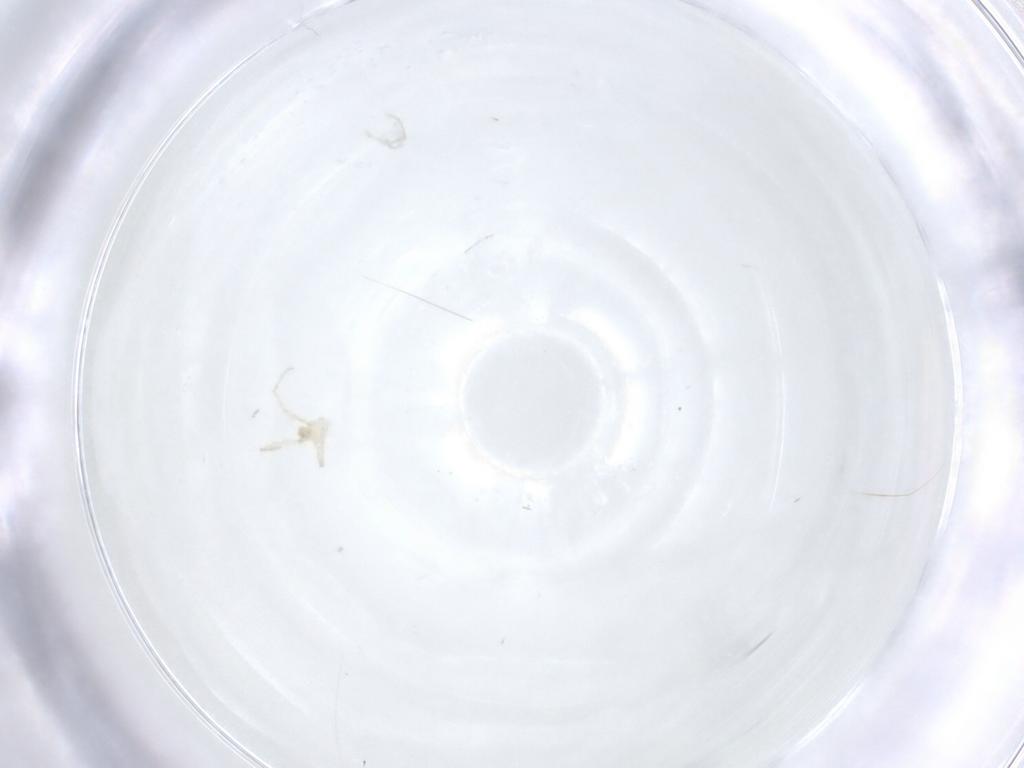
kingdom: Animalia
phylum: Arthropoda
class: Arachnida
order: Trombidiformes
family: Erythraeidae
